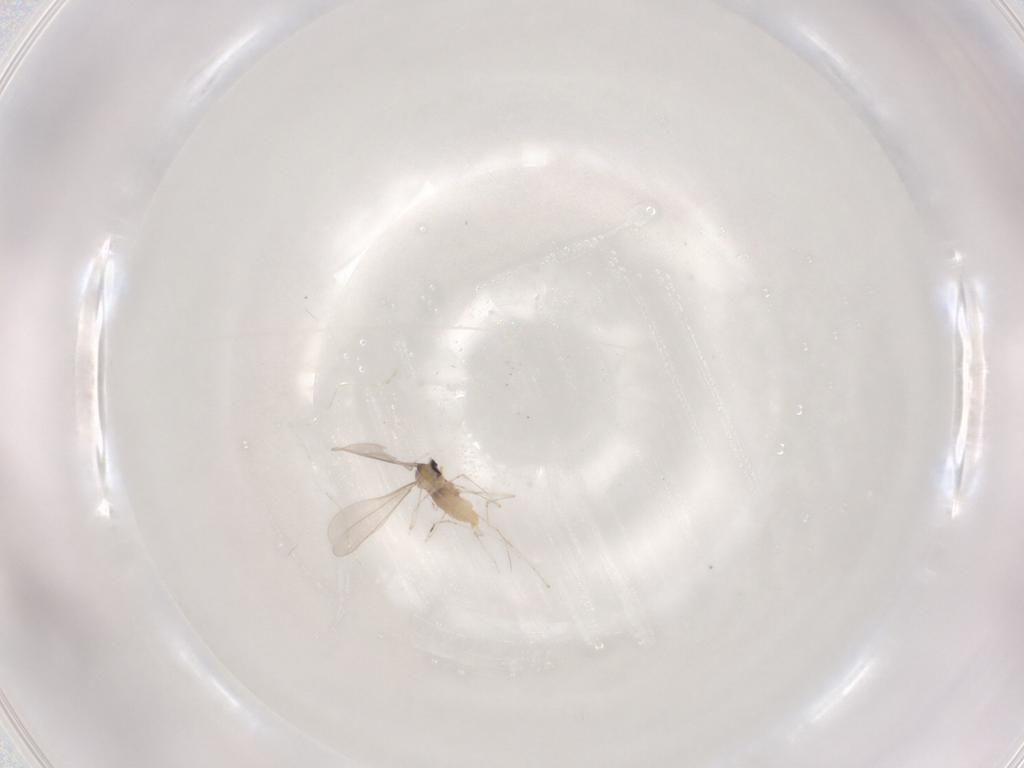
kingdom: Animalia
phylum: Arthropoda
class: Insecta
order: Diptera
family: Cecidomyiidae
